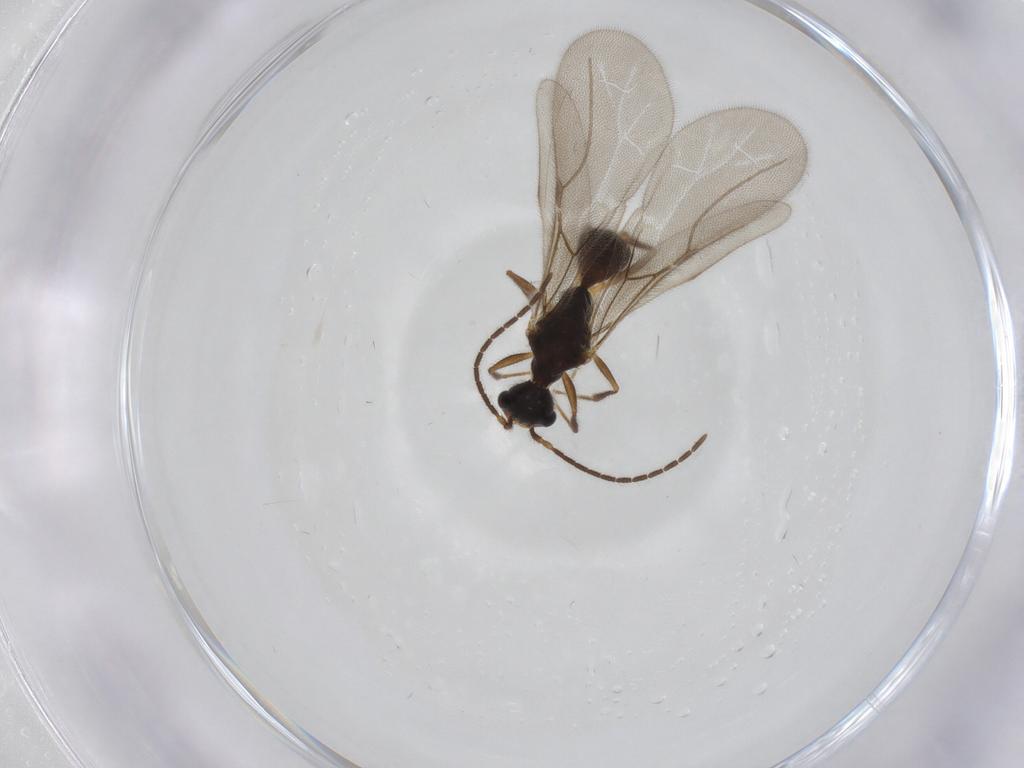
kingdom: Animalia
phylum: Arthropoda
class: Insecta
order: Hymenoptera
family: Bethylidae
